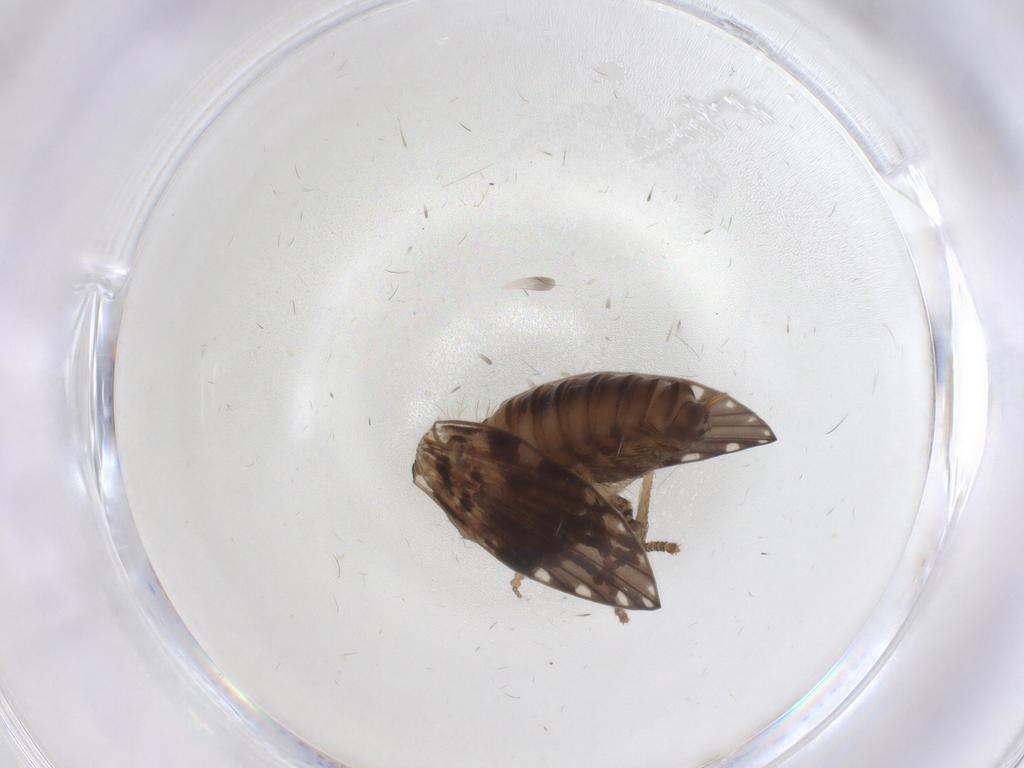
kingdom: Animalia
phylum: Arthropoda
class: Insecta
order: Diptera
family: Psychodidae
